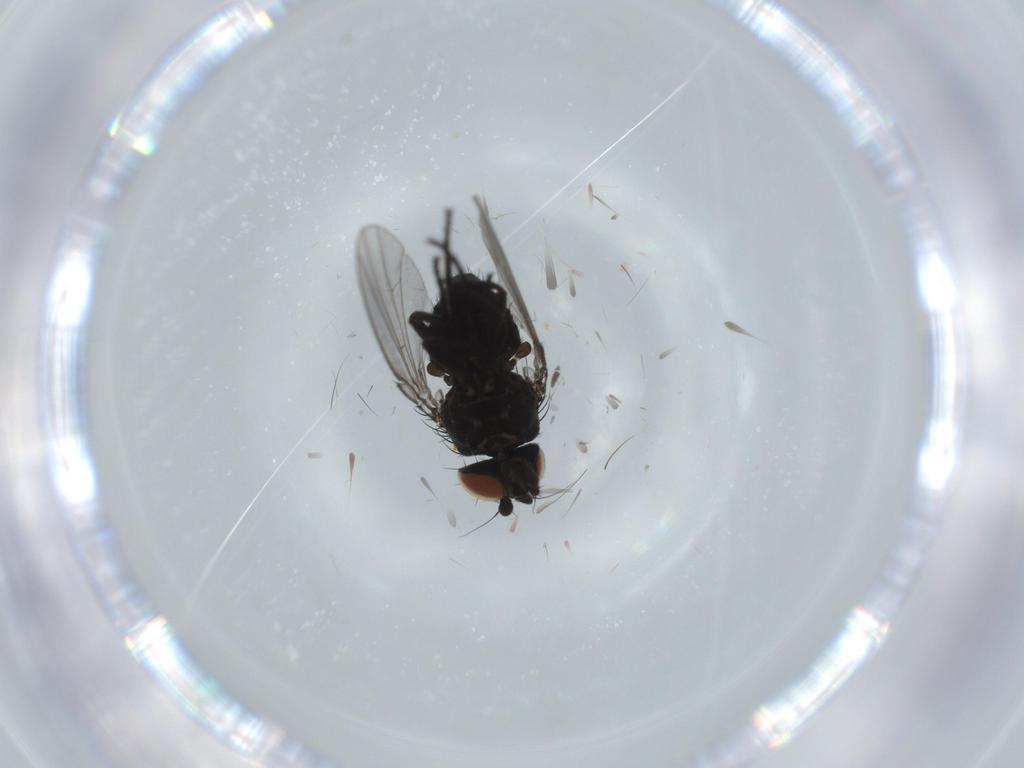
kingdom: Animalia
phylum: Arthropoda
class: Insecta
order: Diptera
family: Milichiidae
